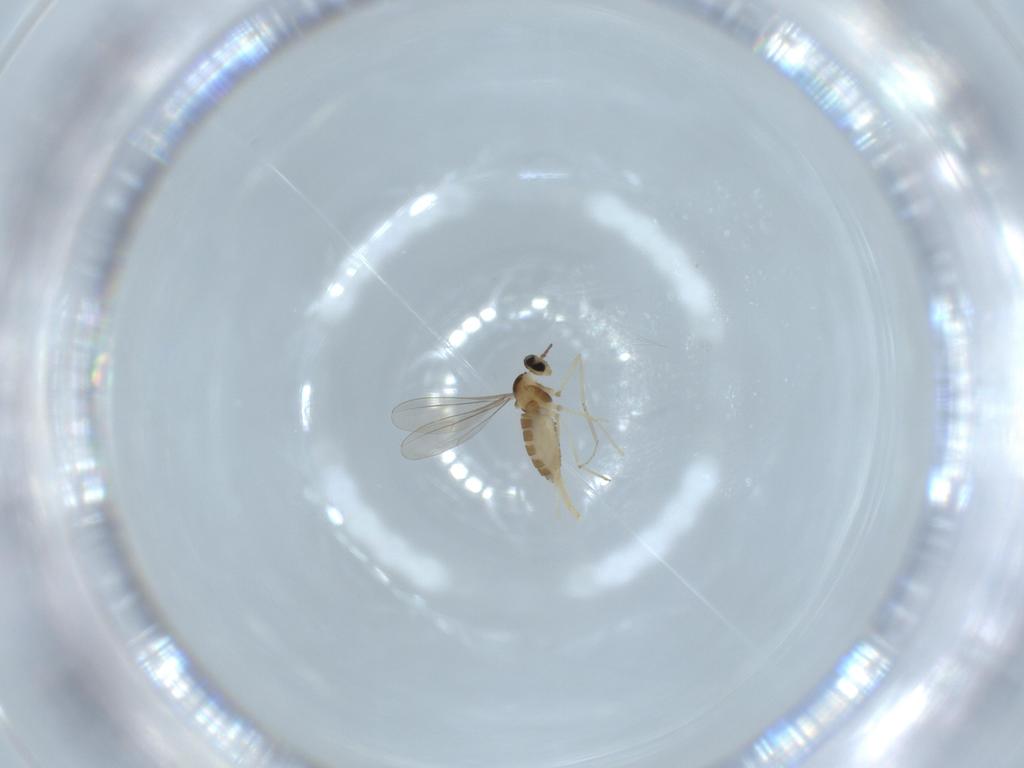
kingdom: Animalia
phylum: Arthropoda
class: Insecta
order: Diptera
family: Cecidomyiidae
